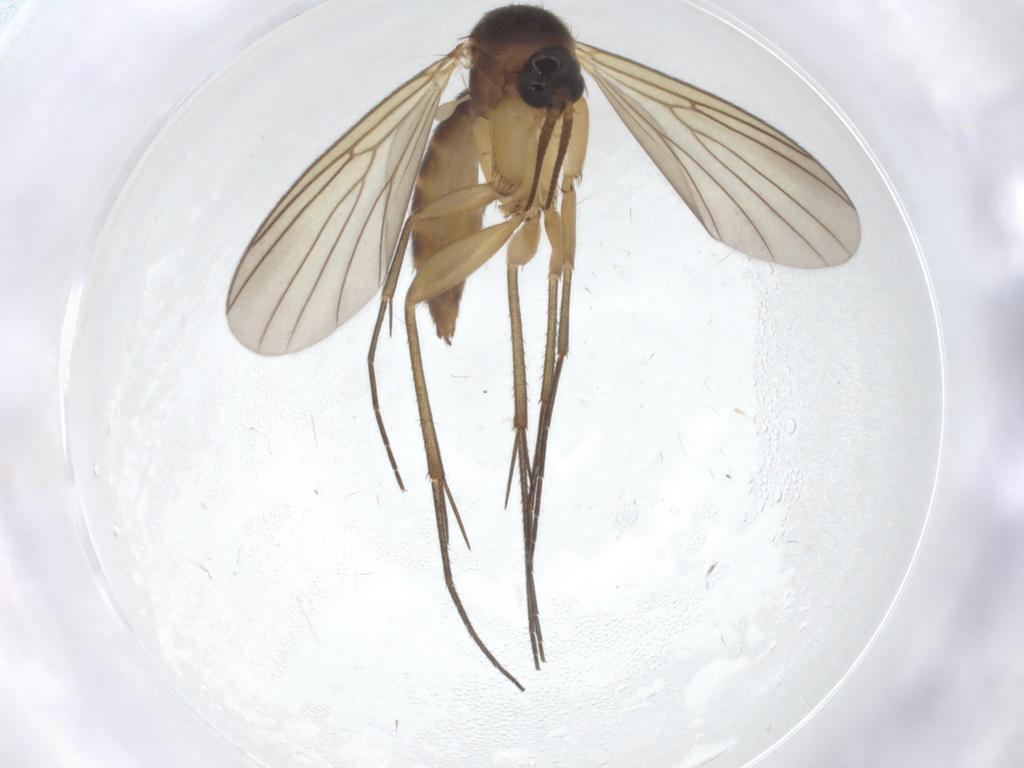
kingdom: Animalia
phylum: Arthropoda
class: Insecta
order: Diptera
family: Mycetophilidae
